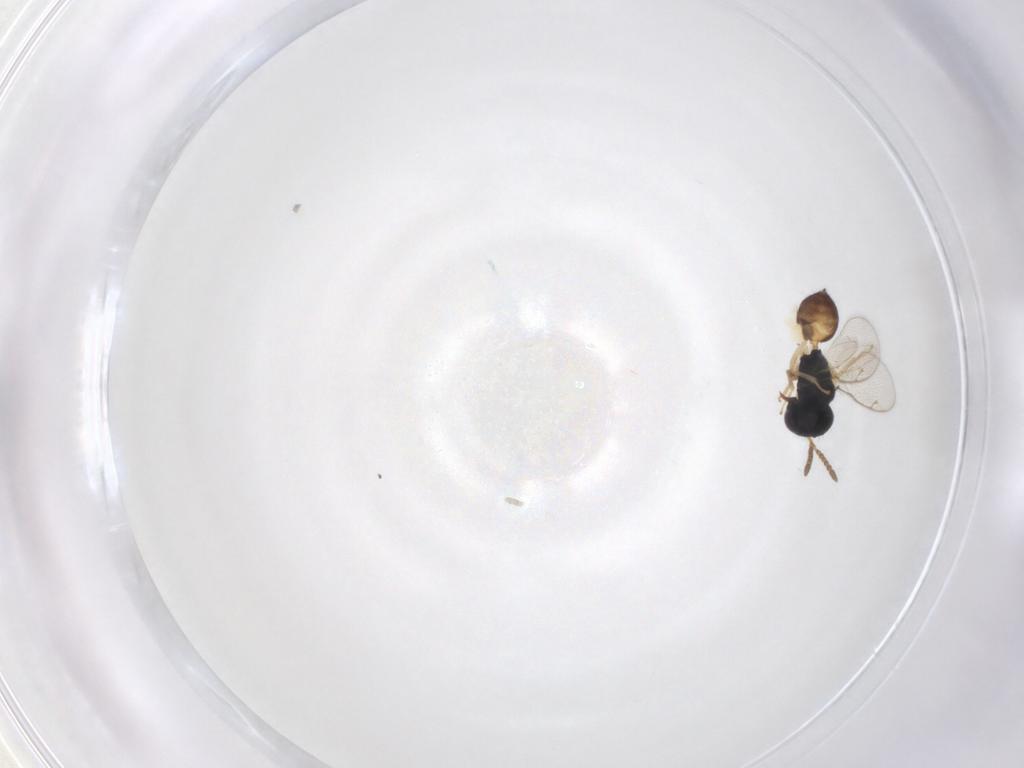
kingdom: Animalia
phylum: Arthropoda
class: Insecta
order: Hymenoptera
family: Pteromalidae
